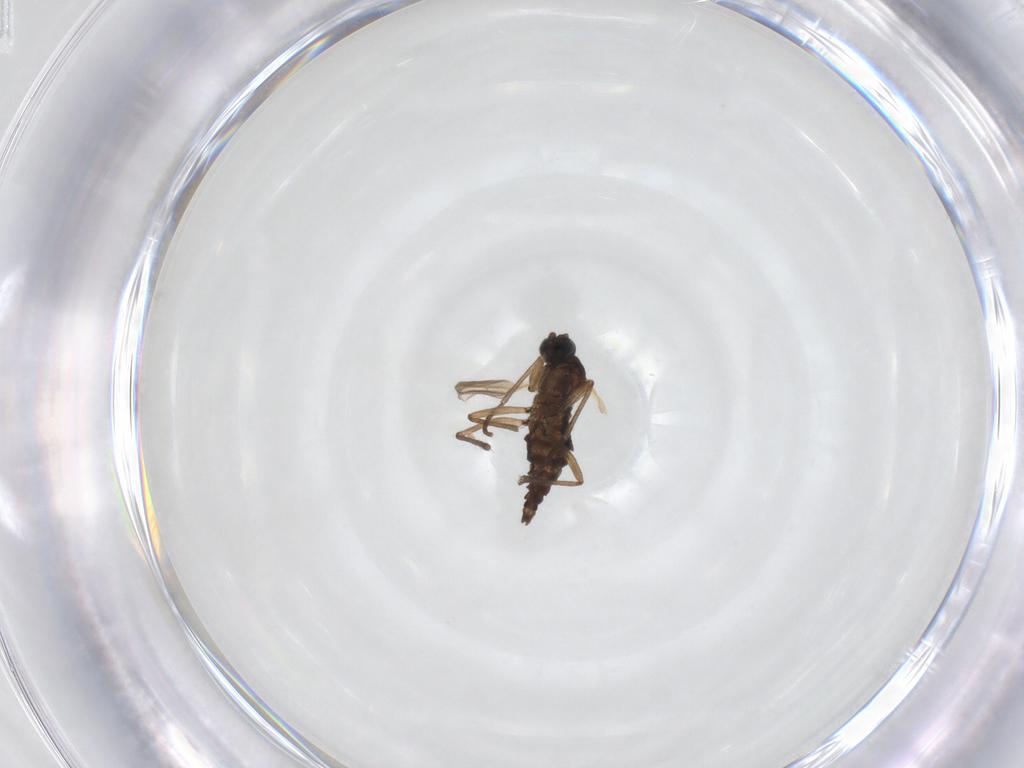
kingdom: Animalia
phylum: Arthropoda
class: Insecta
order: Diptera
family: Sciaridae
